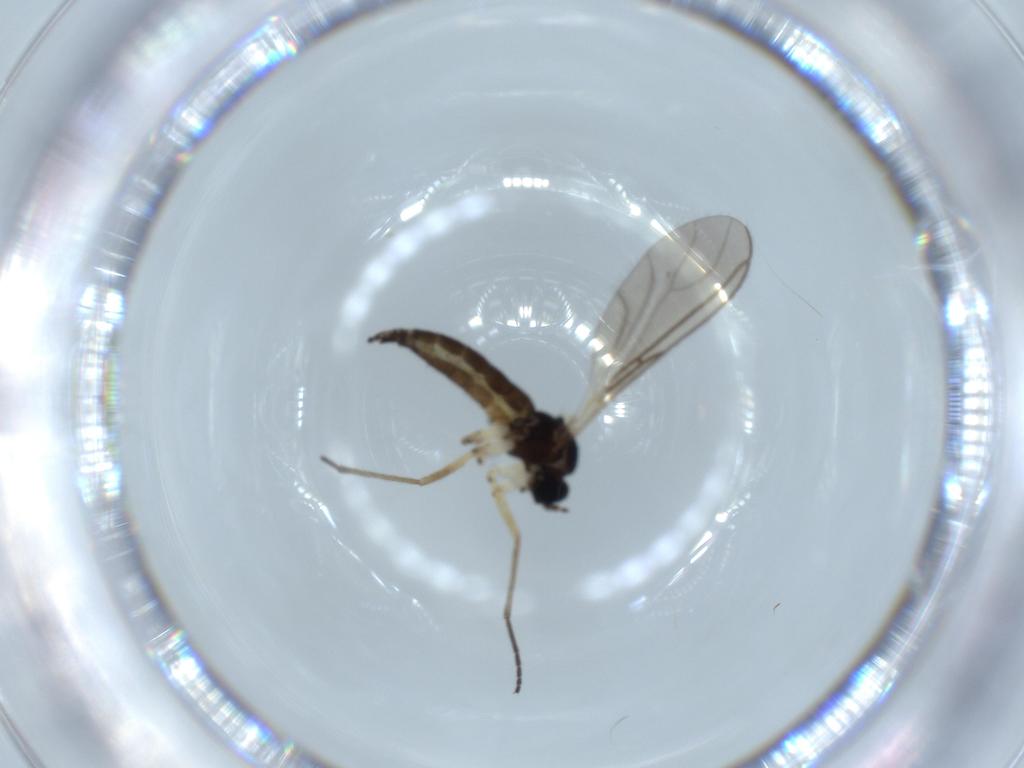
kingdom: Animalia
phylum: Arthropoda
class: Insecta
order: Diptera
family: Sciaridae
